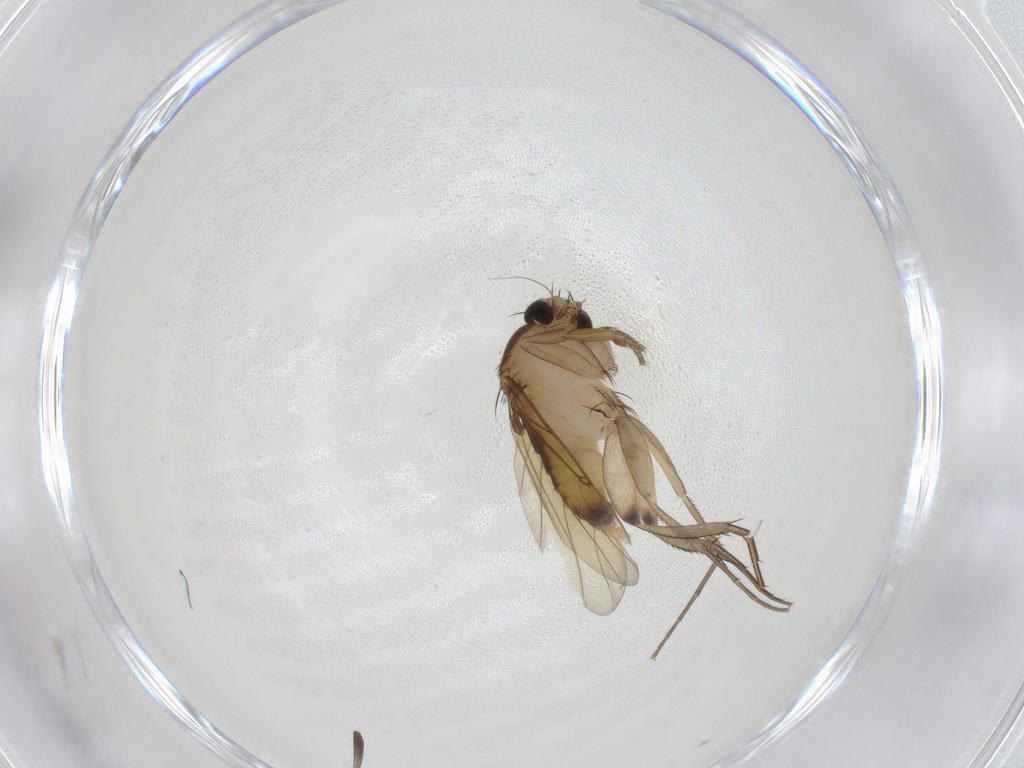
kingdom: Animalia
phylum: Arthropoda
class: Insecta
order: Diptera
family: Phoridae
